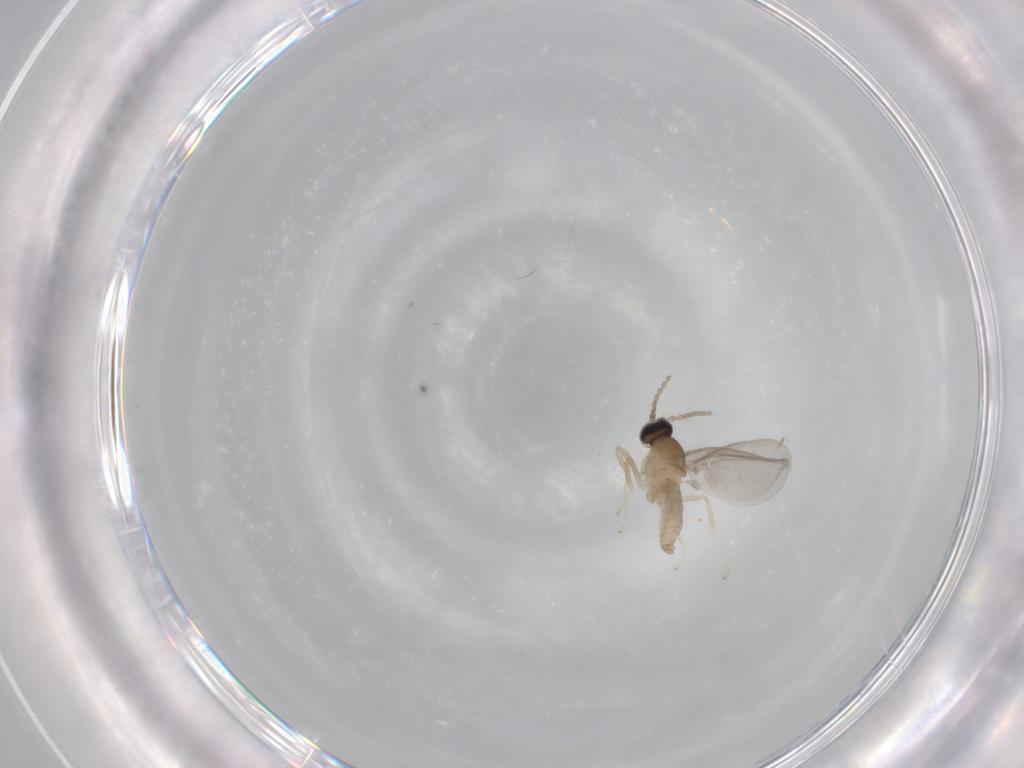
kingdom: Animalia
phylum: Arthropoda
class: Insecta
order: Diptera
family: Cecidomyiidae
